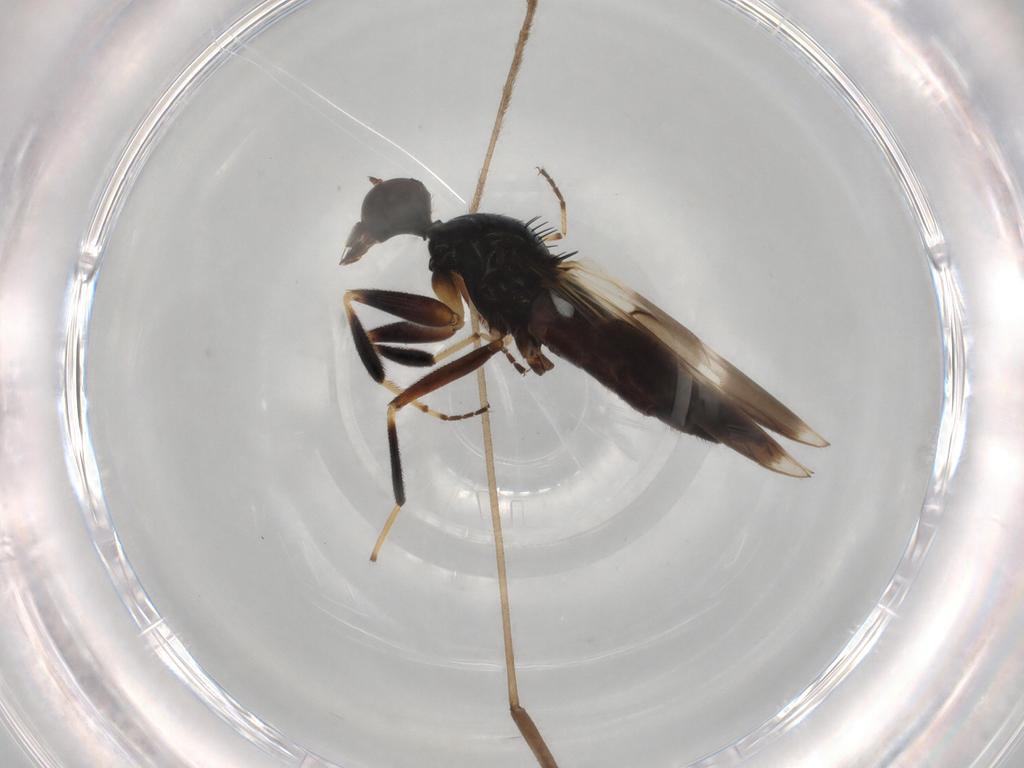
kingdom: Animalia
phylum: Arthropoda
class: Insecta
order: Diptera
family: Hybotidae
